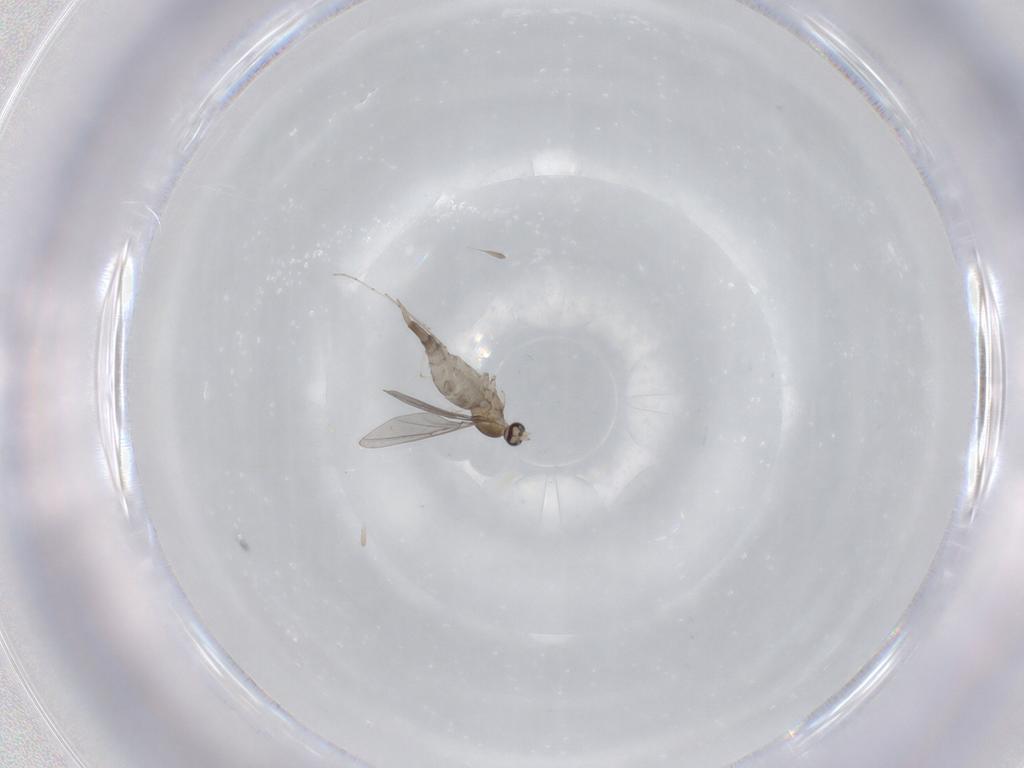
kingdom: Animalia
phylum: Arthropoda
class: Insecta
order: Diptera
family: Cecidomyiidae
